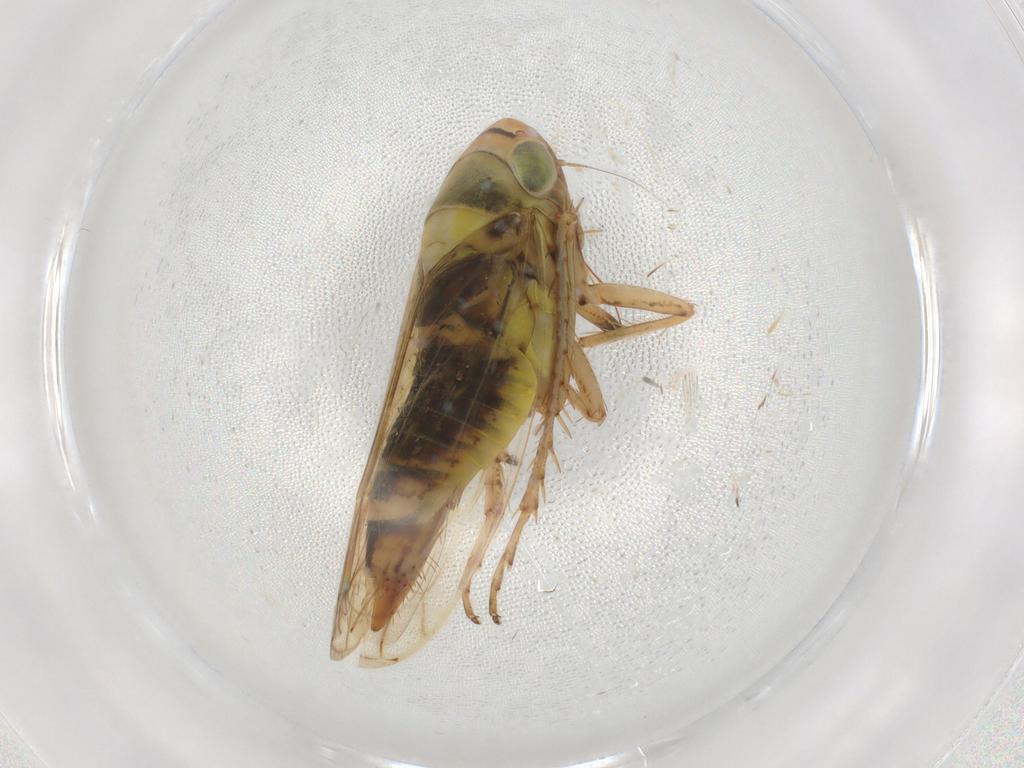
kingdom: Animalia
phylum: Arthropoda
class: Insecta
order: Hemiptera
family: Cicadellidae
